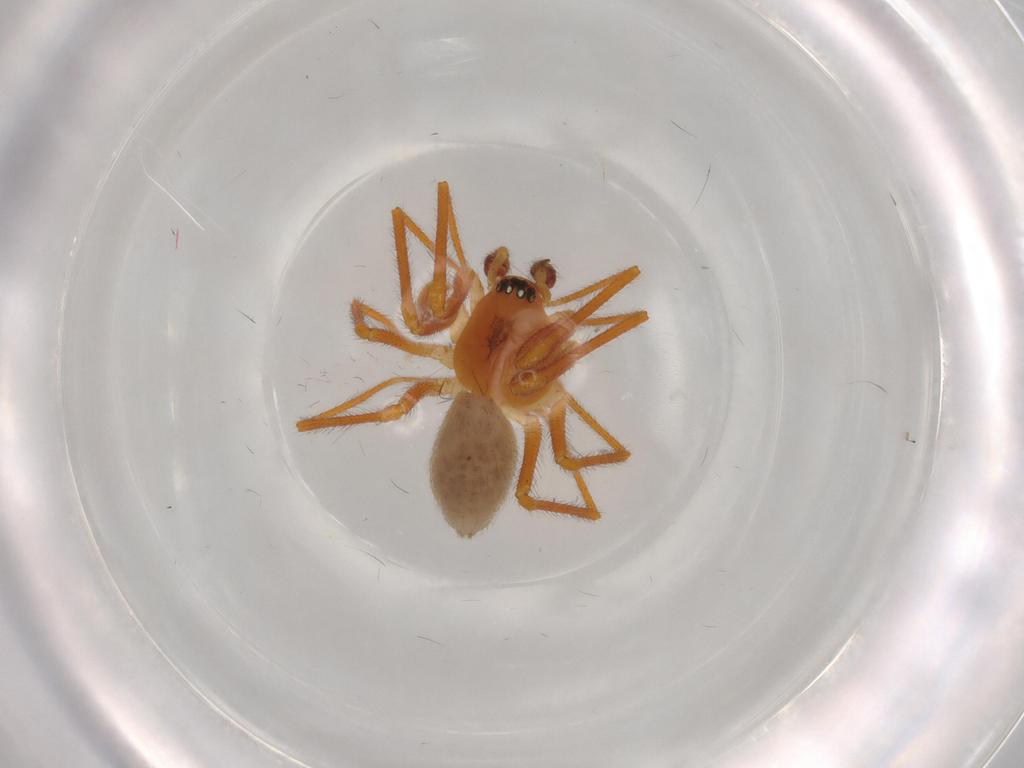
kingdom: Animalia
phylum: Arthropoda
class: Arachnida
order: Araneae
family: Linyphiidae
